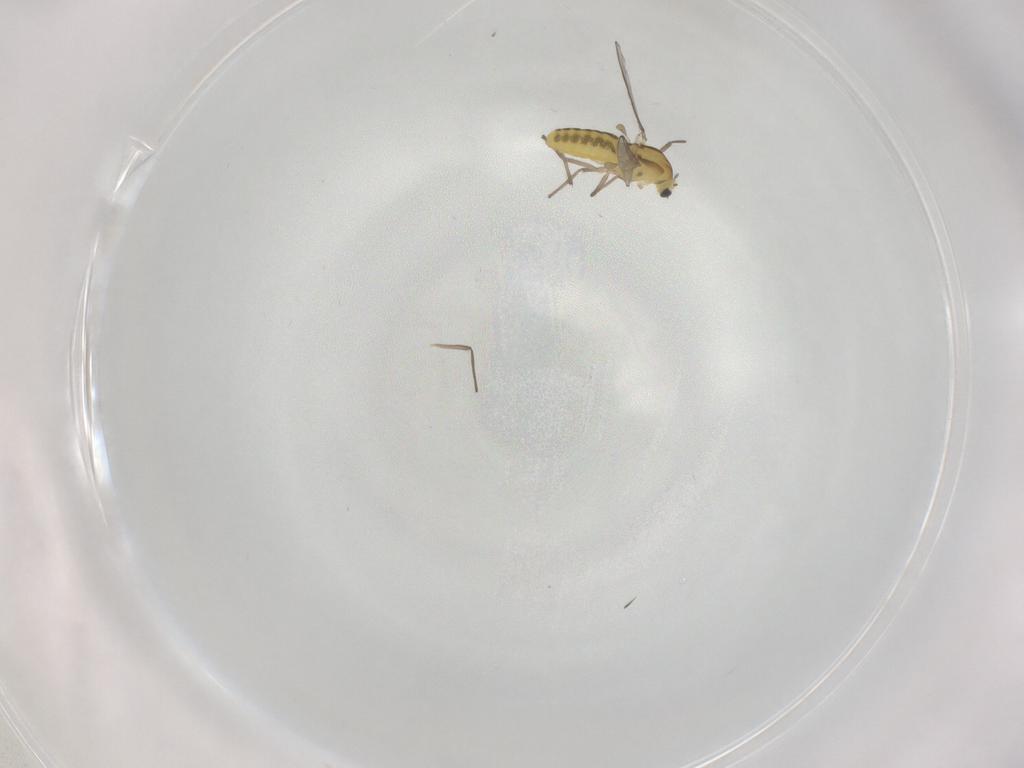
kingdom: Animalia
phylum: Arthropoda
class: Insecta
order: Diptera
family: Chironomidae
